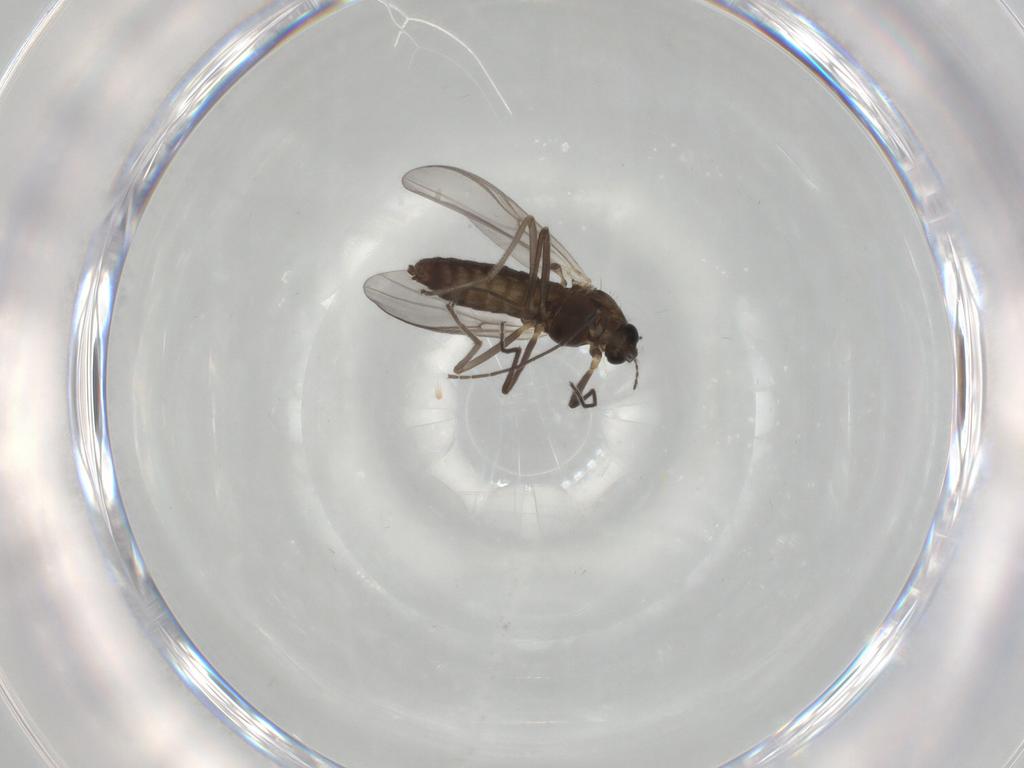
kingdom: Animalia
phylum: Arthropoda
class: Insecta
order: Diptera
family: Chironomidae
